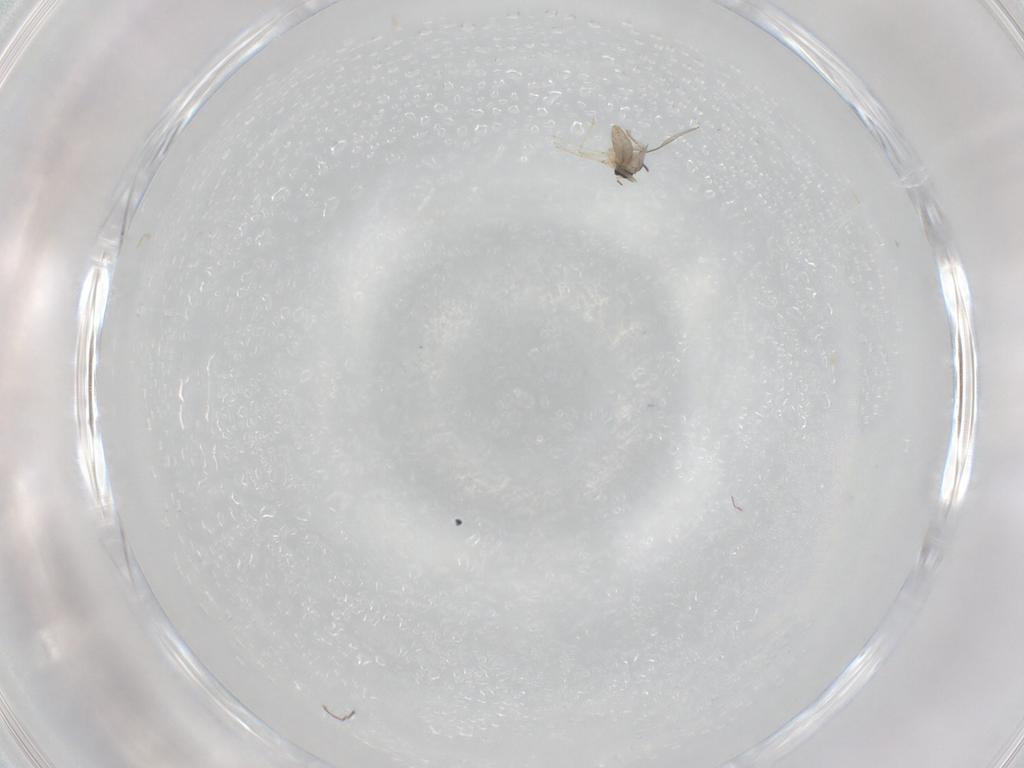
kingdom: Animalia
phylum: Arthropoda
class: Insecta
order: Diptera
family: Cecidomyiidae
